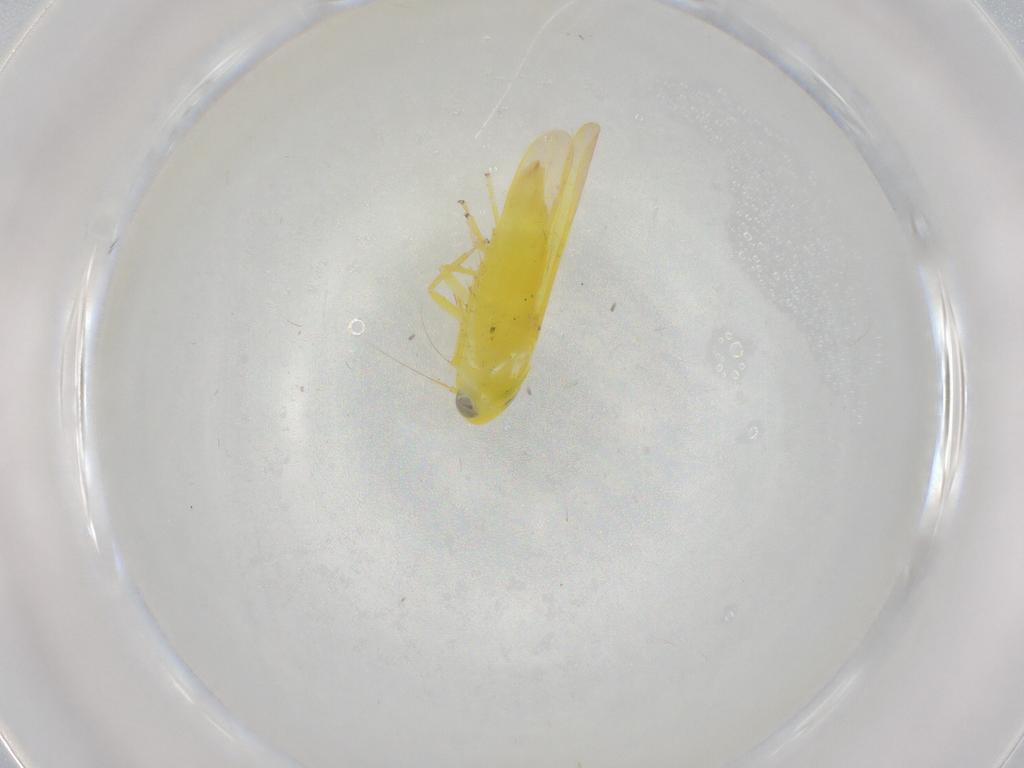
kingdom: Animalia
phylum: Arthropoda
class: Insecta
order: Hemiptera
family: Cicadellidae
